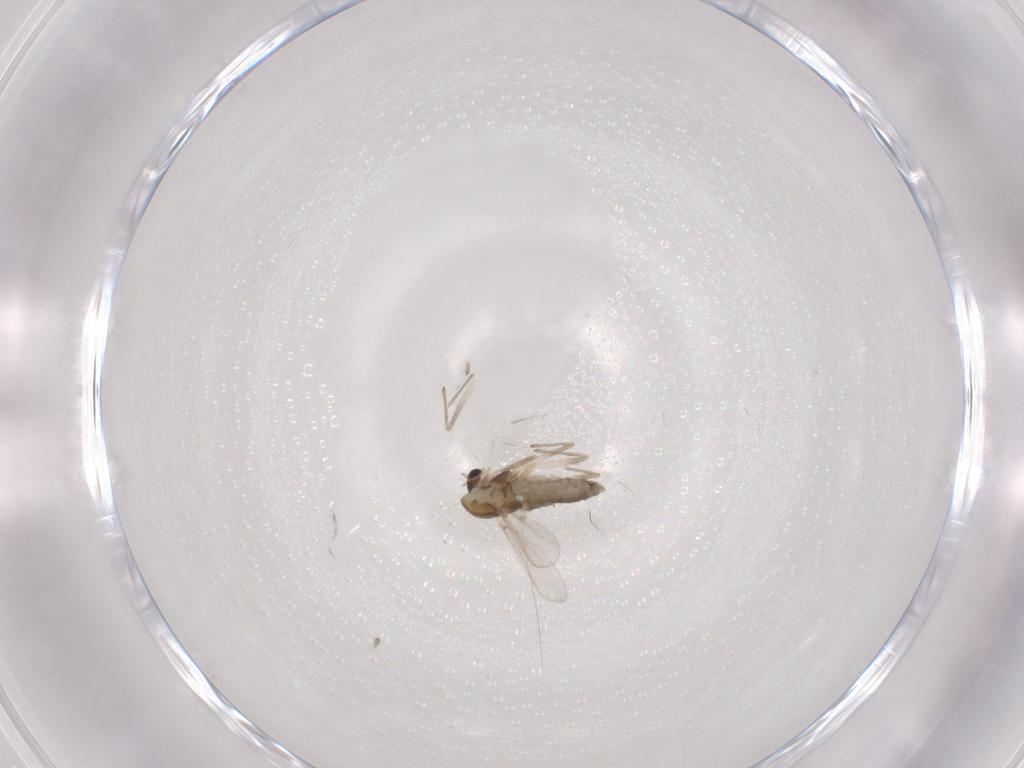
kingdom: Animalia
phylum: Arthropoda
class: Insecta
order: Diptera
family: Chironomidae
